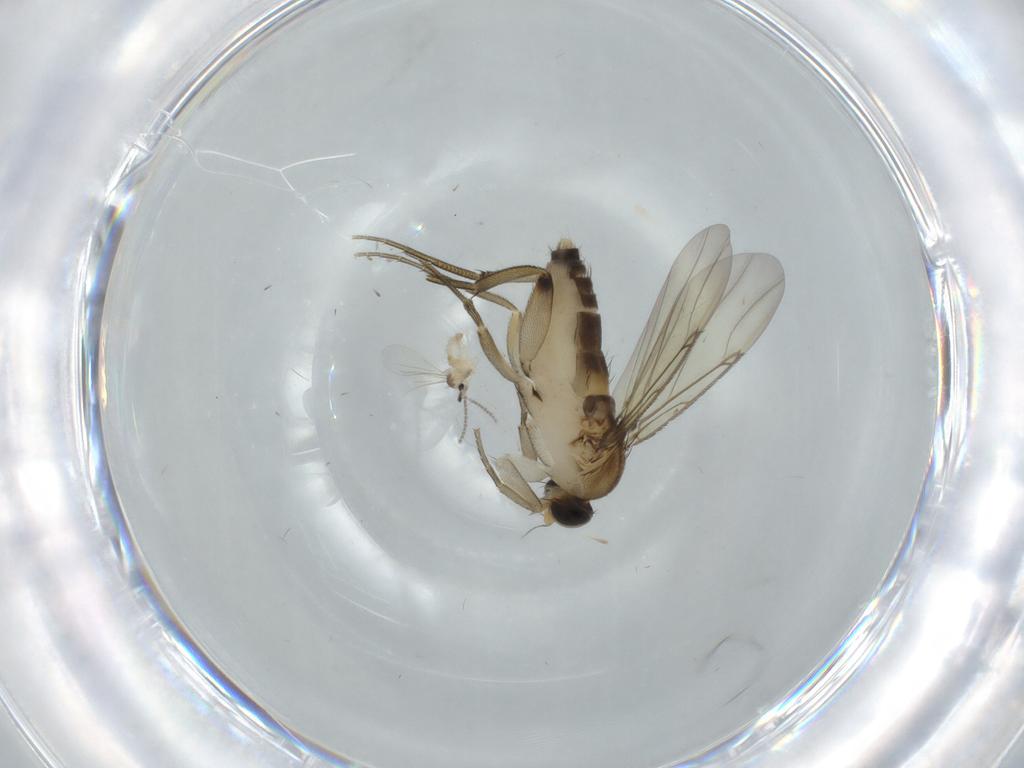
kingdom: Animalia
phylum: Arthropoda
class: Insecta
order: Diptera
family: Phoridae
